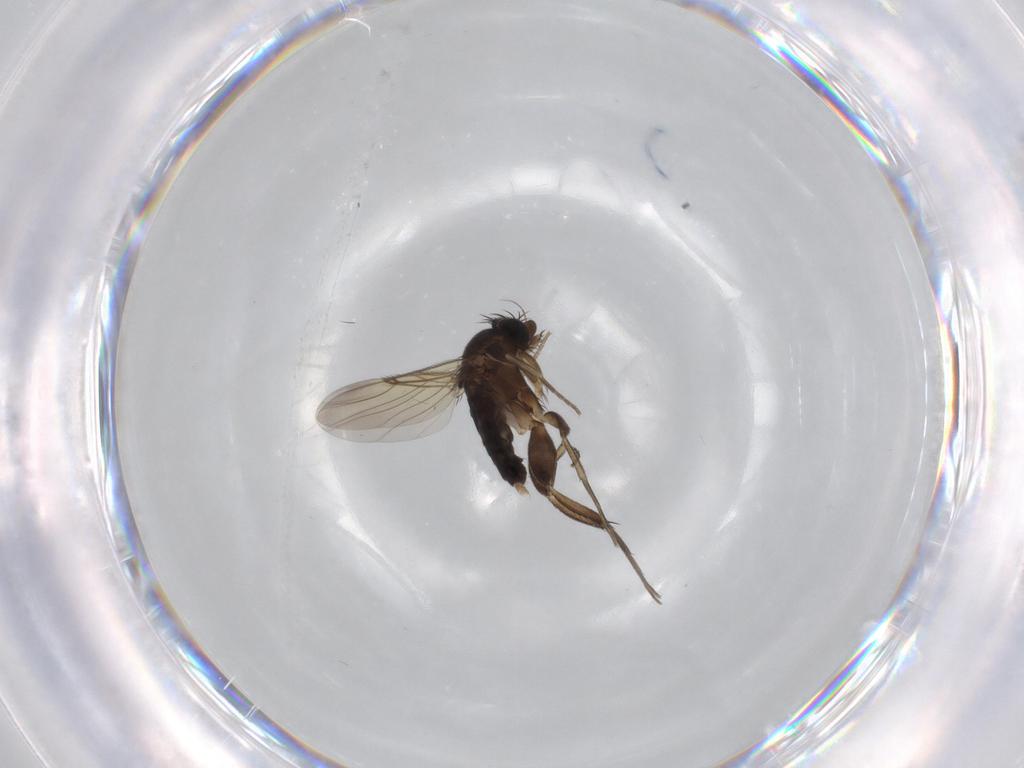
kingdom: Animalia
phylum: Arthropoda
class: Insecta
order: Diptera
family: Phoridae
